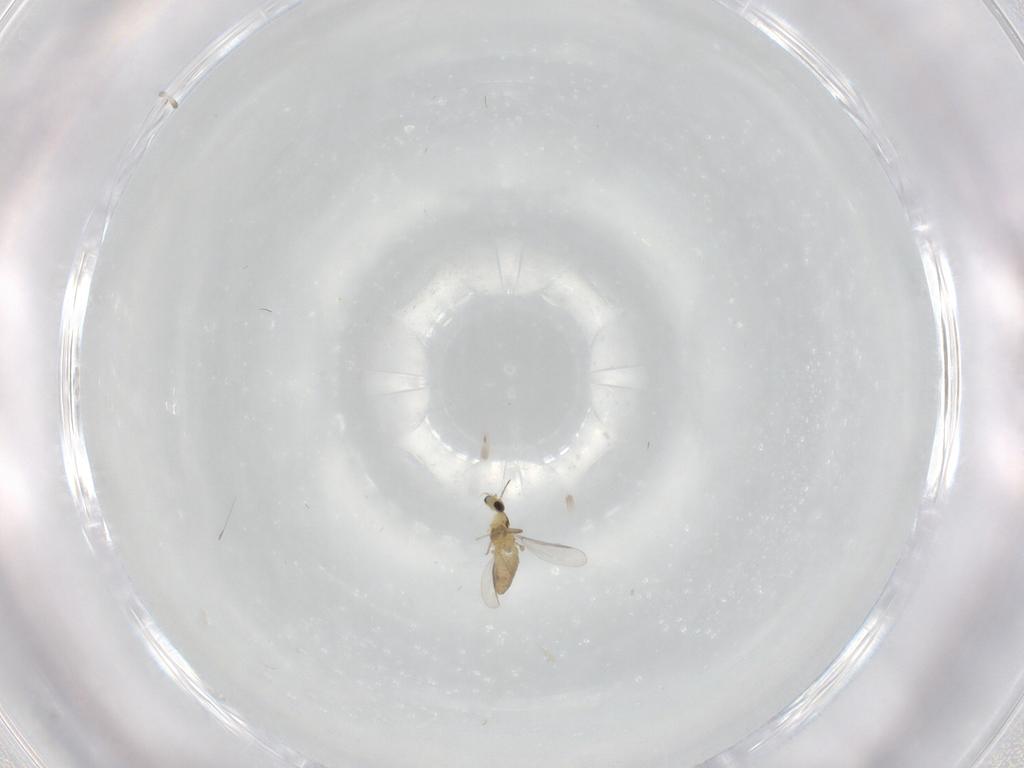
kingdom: Animalia
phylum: Arthropoda
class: Insecta
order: Diptera
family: Chironomidae
